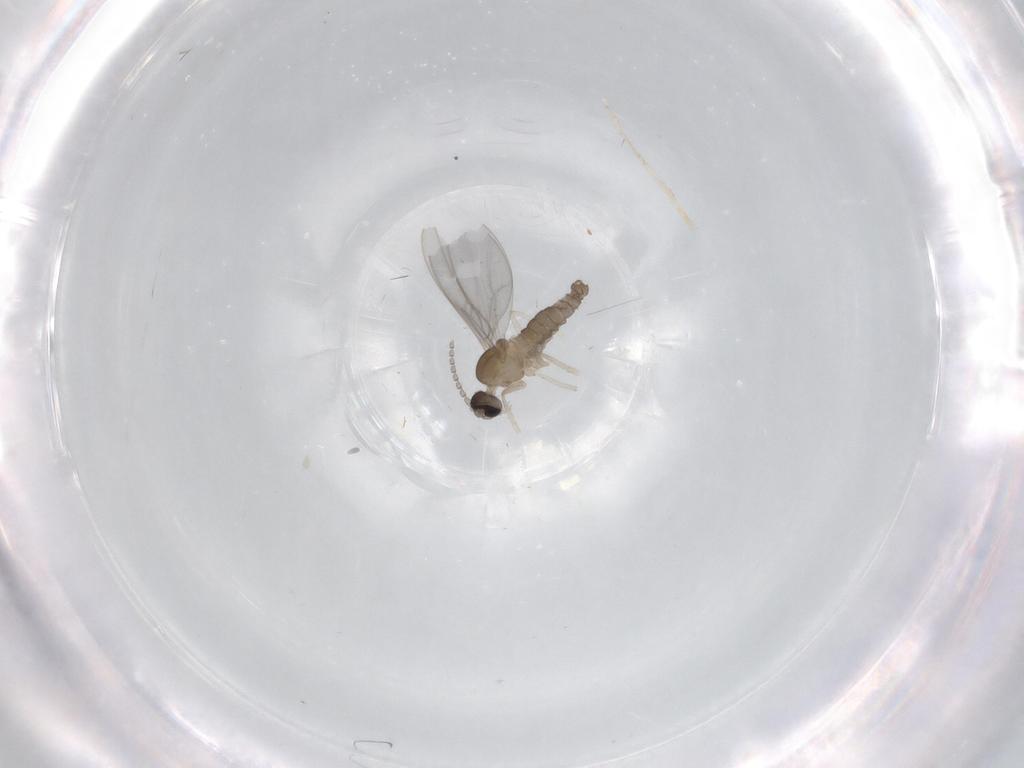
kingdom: Animalia
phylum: Arthropoda
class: Insecta
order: Diptera
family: Cecidomyiidae
